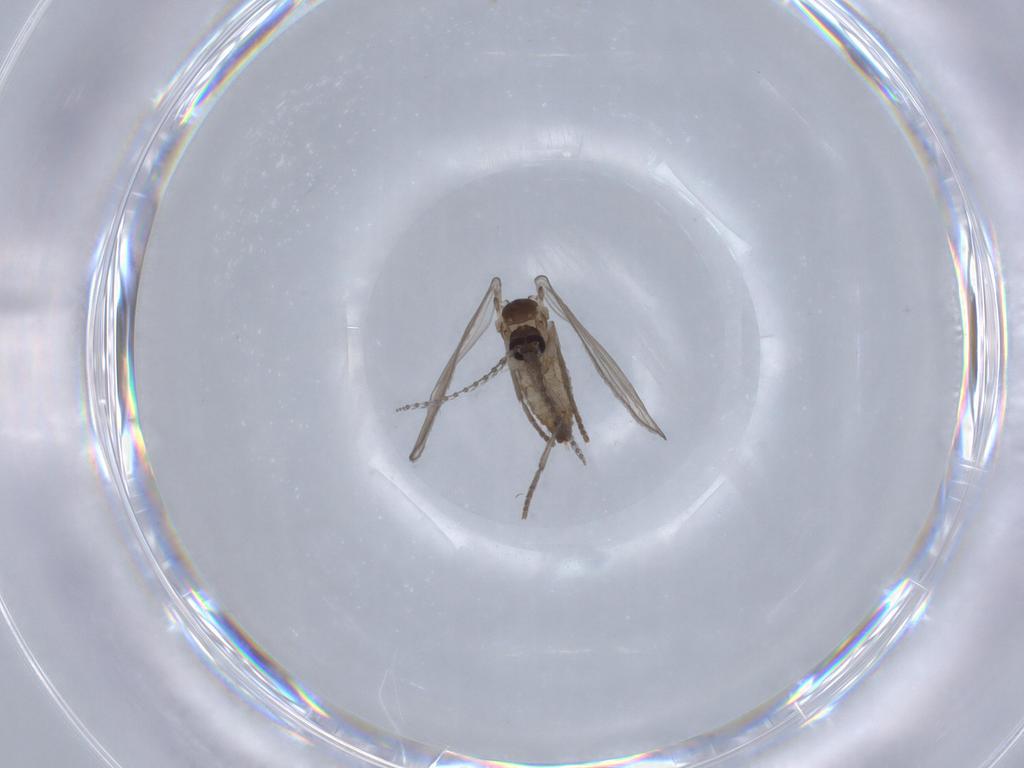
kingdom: Animalia
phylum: Arthropoda
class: Insecta
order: Diptera
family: Psychodidae
